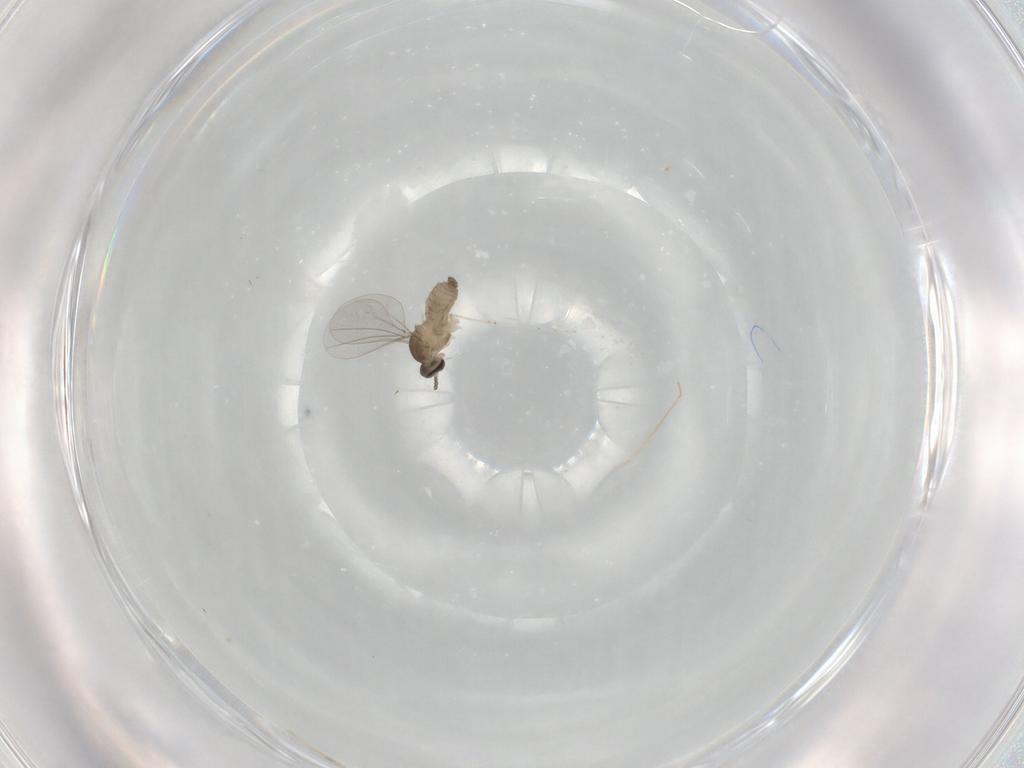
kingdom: Animalia
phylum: Arthropoda
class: Insecta
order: Diptera
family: Cecidomyiidae
